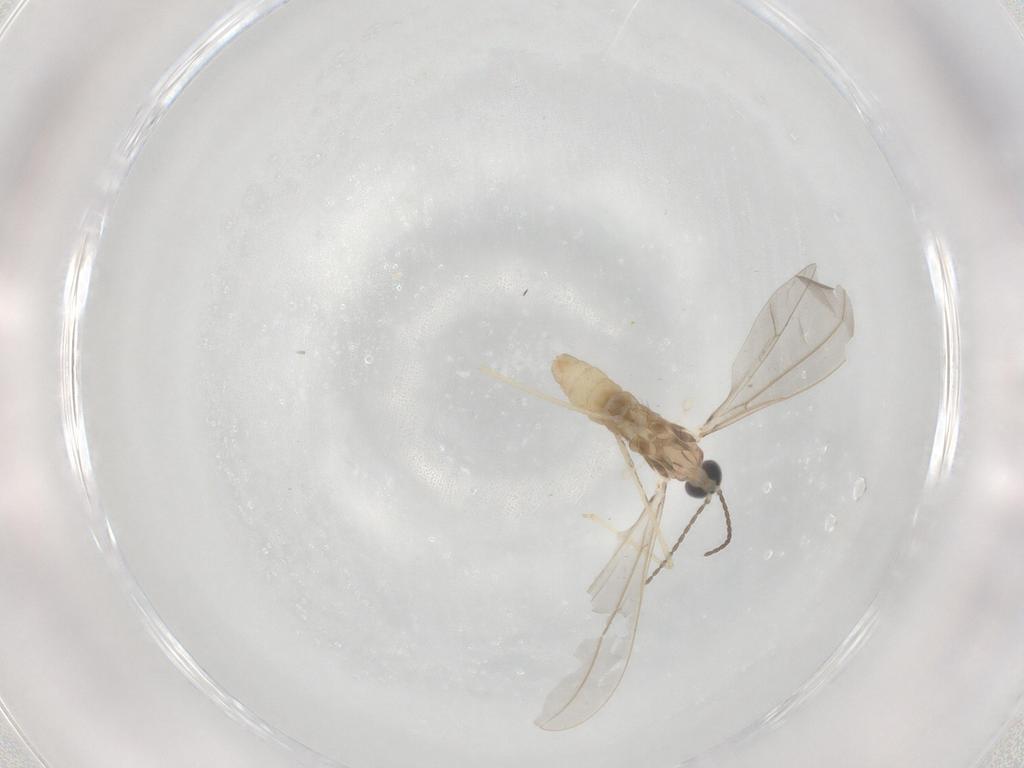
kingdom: Animalia
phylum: Arthropoda
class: Insecta
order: Diptera
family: Cecidomyiidae
